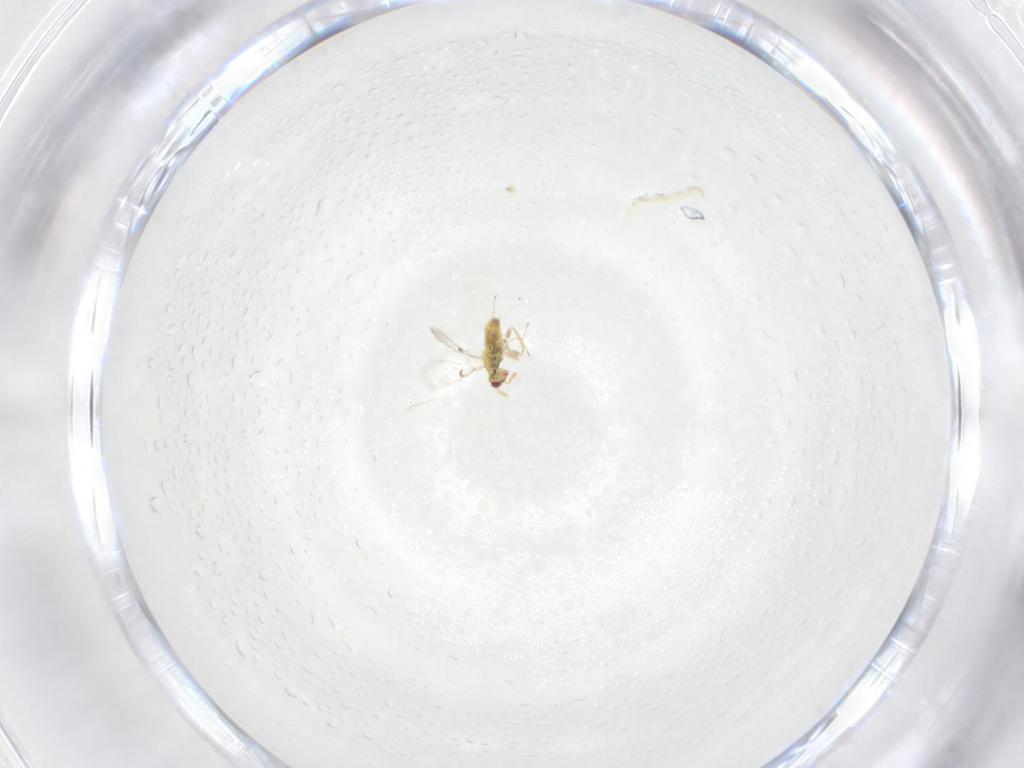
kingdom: Animalia
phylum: Arthropoda
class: Insecta
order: Hymenoptera
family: Trichogrammatidae
